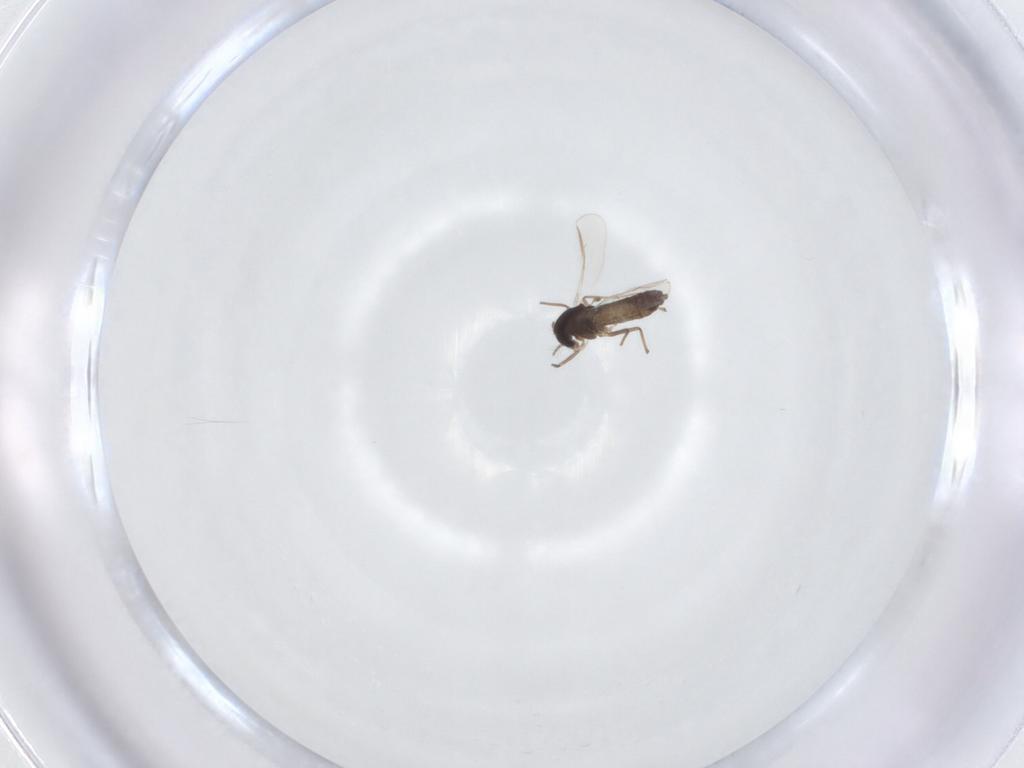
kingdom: Animalia
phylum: Arthropoda
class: Insecta
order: Diptera
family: Chironomidae
